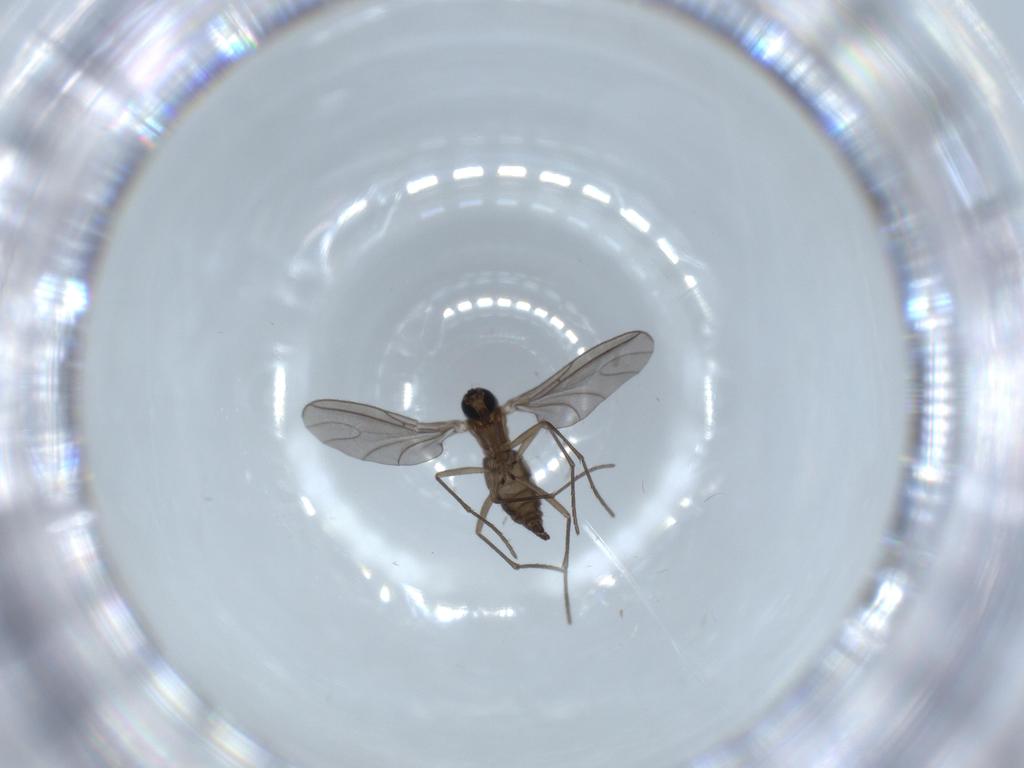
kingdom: Animalia
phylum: Arthropoda
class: Insecta
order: Diptera
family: Sciaridae
